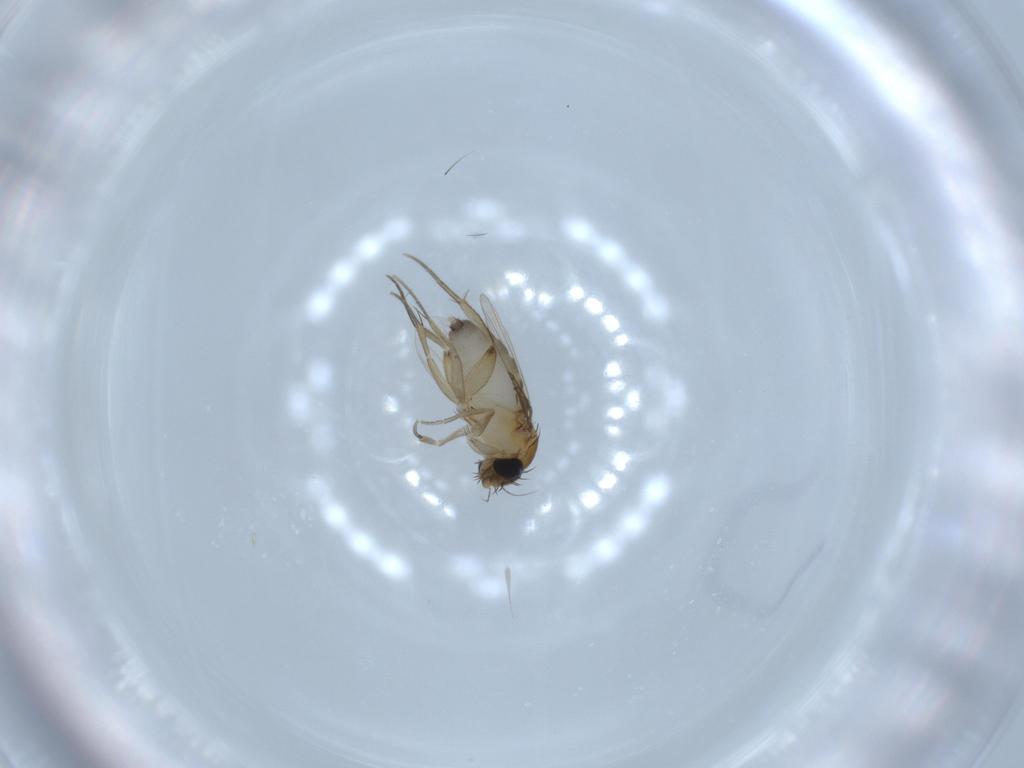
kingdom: Animalia
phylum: Arthropoda
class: Insecta
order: Diptera
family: Phoridae
